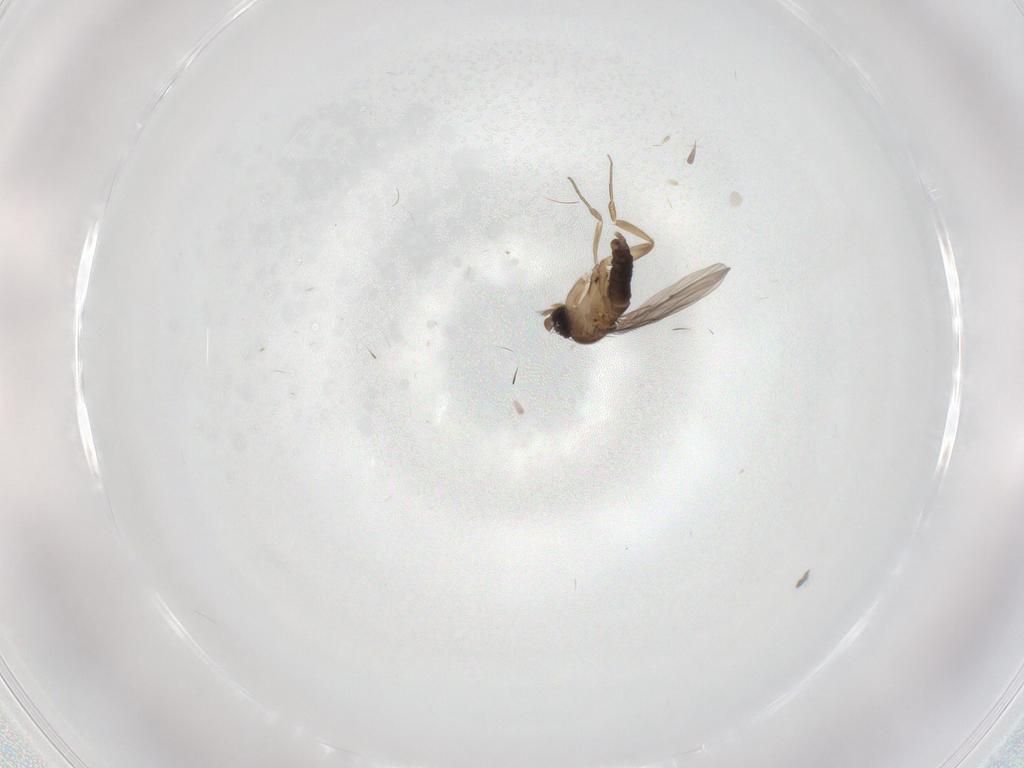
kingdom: Animalia
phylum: Arthropoda
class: Insecta
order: Diptera
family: Phoridae
